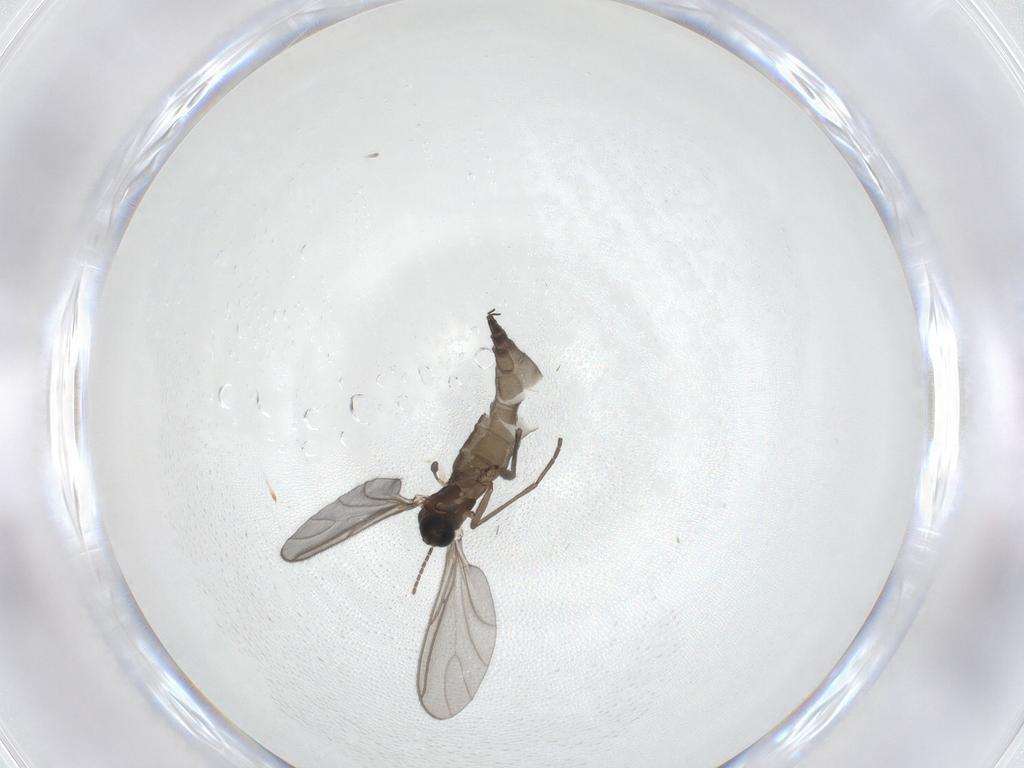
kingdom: Animalia
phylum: Arthropoda
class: Insecta
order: Diptera
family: Sciaridae
